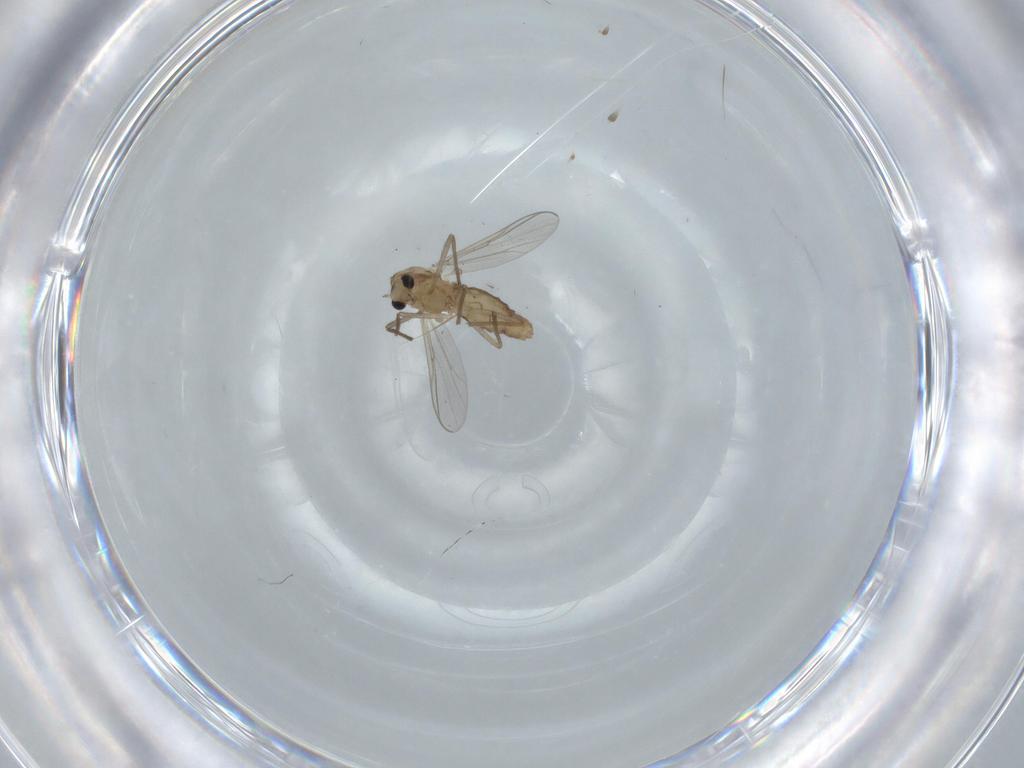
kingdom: Animalia
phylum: Arthropoda
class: Insecta
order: Diptera
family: Chironomidae
